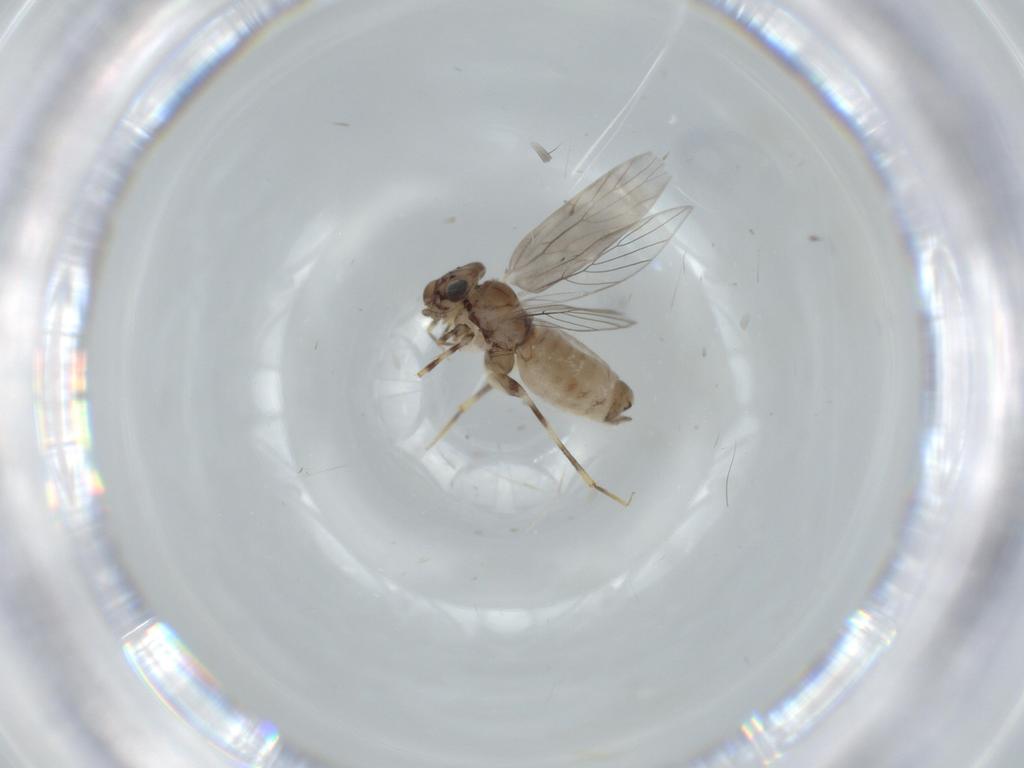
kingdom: Animalia
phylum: Arthropoda
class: Insecta
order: Psocodea
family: Lepidopsocidae
